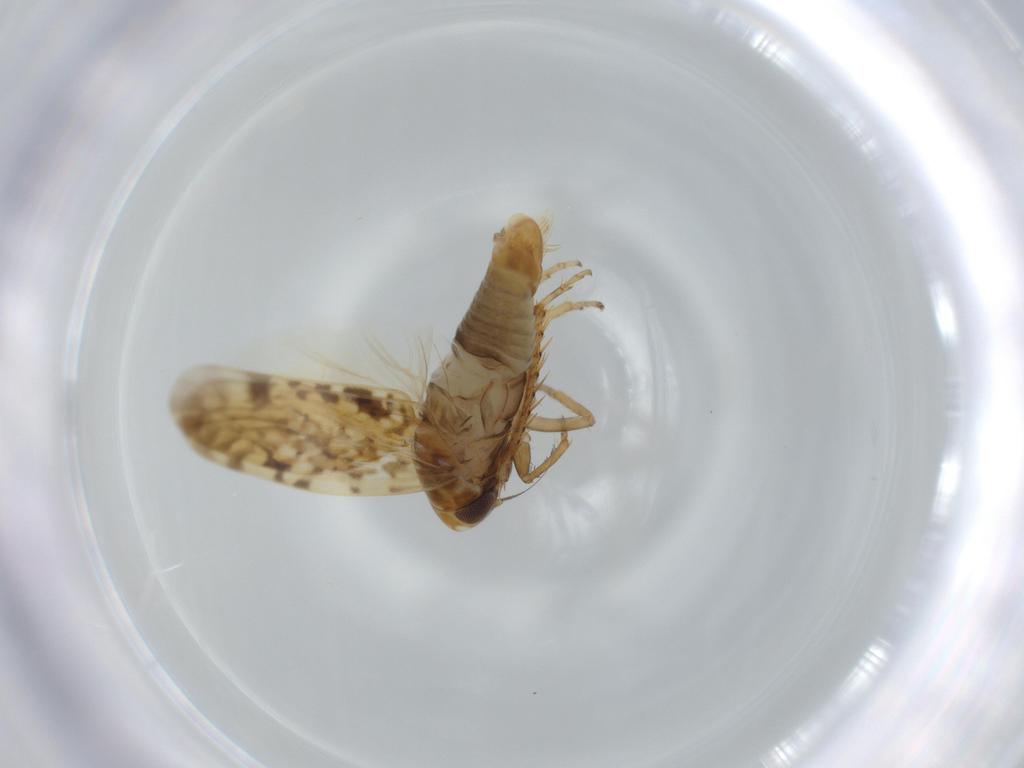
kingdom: Animalia
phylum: Arthropoda
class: Insecta
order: Hemiptera
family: Cicadellidae
